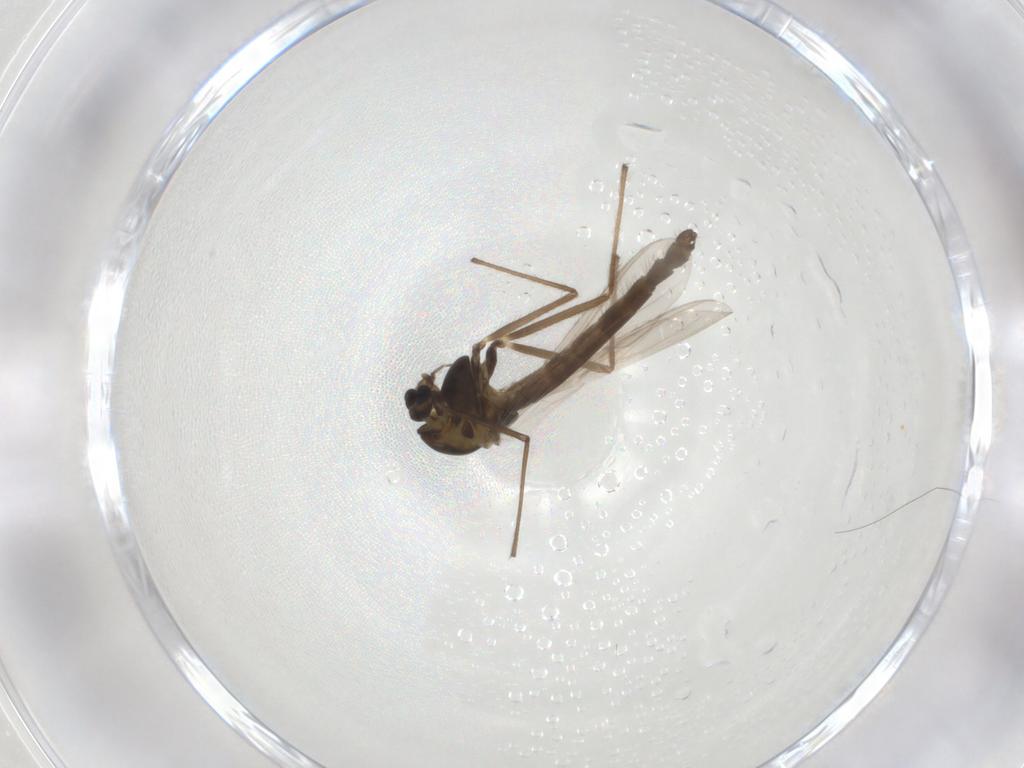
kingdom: Animalia
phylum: Arthropoda
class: Insecta
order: Diptera
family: Chironomidae
